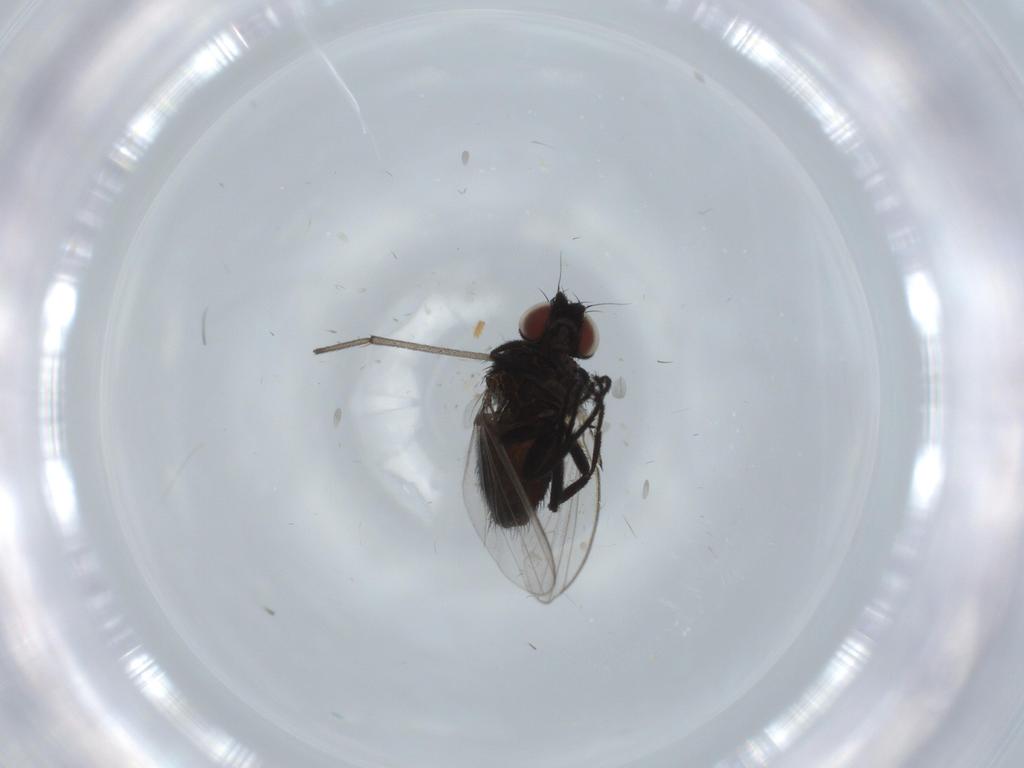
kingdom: Animalia
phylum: Arthropoda
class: Insecta
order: Diptera
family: Milichiidae
